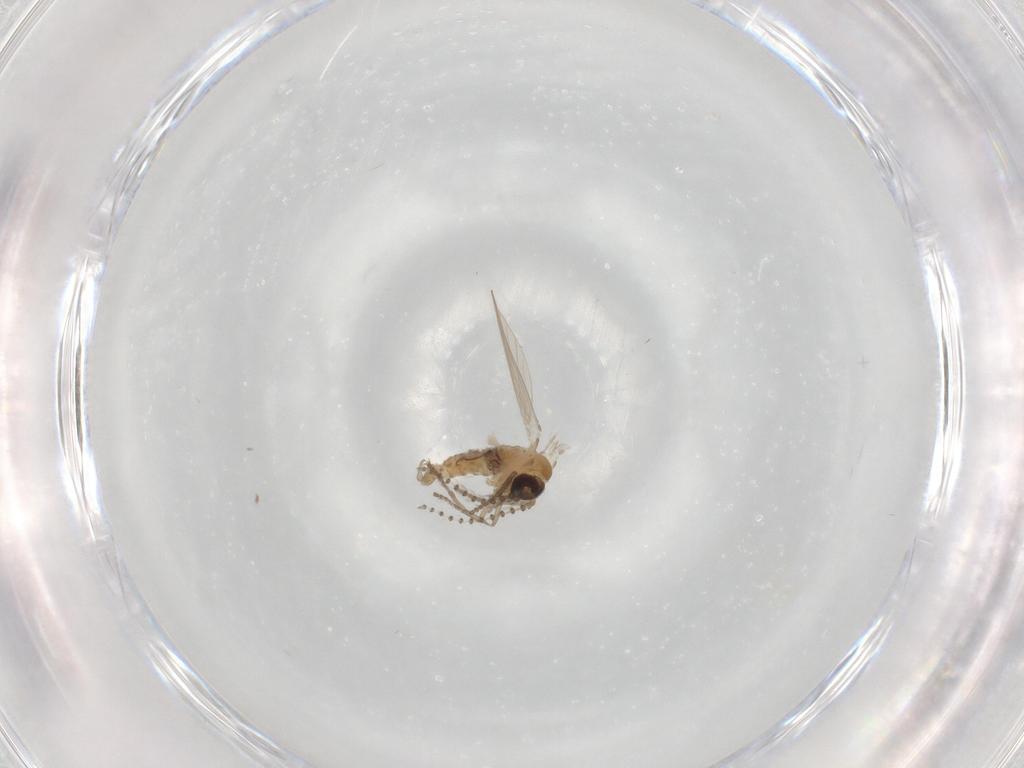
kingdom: Animalia
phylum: Arthropoda
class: Insecta
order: Diptera
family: Psychodidae
